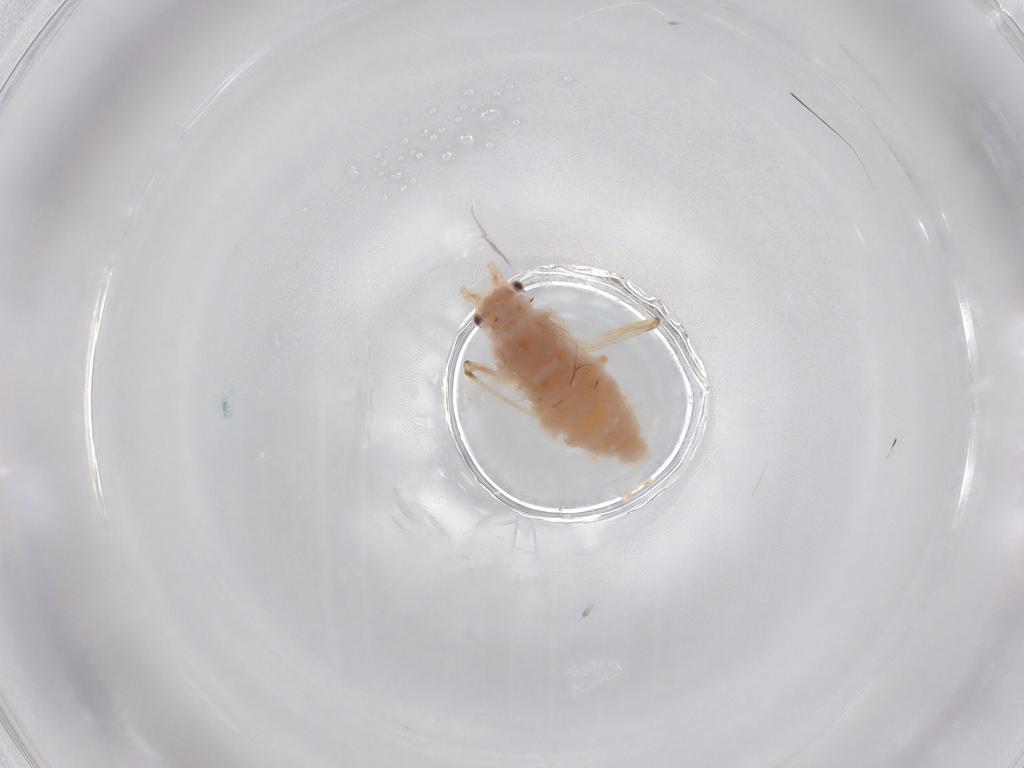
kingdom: Animalia
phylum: Arthropoda
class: Insecta
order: Hemiptera
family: Aphididae
